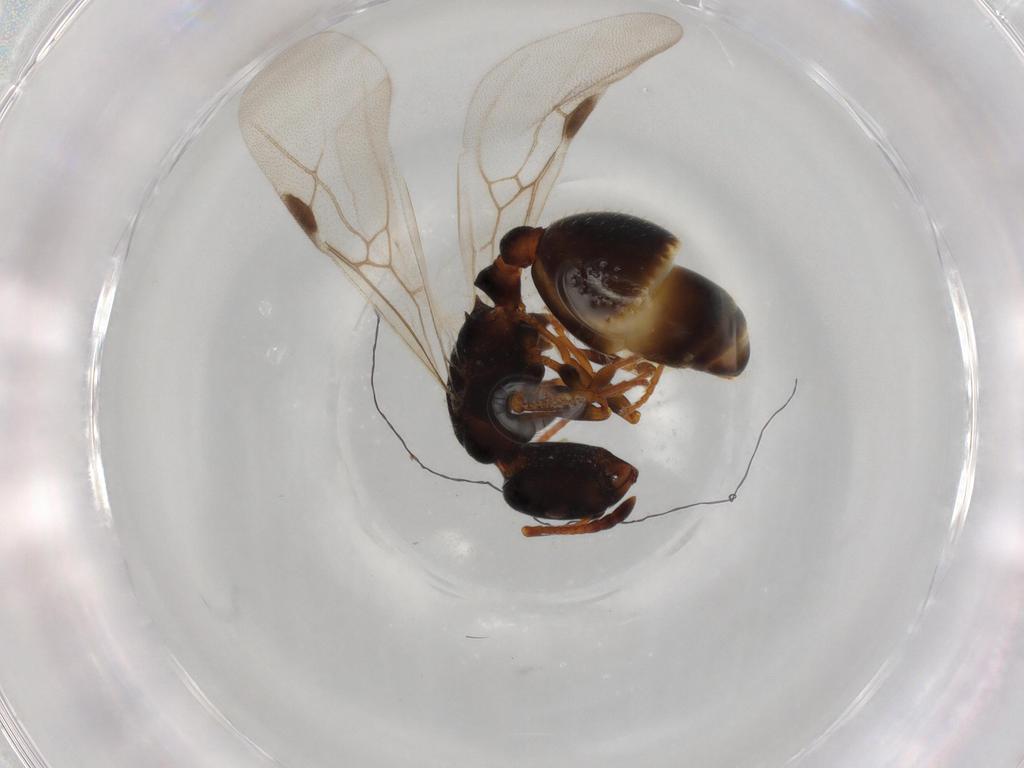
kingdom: Animalia
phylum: Arthropoda
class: Insecta
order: Hymenoptera
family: Formicidae
